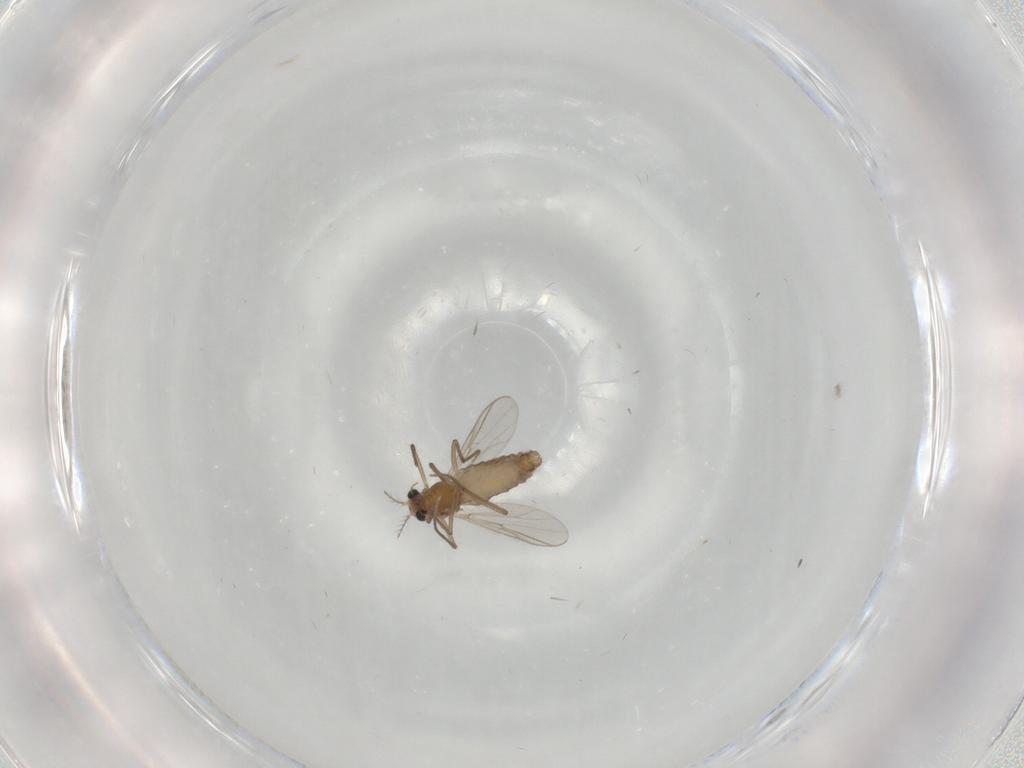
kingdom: Animalia
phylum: Arthropoda
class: Insecta
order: Diptera
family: Chironomidae
